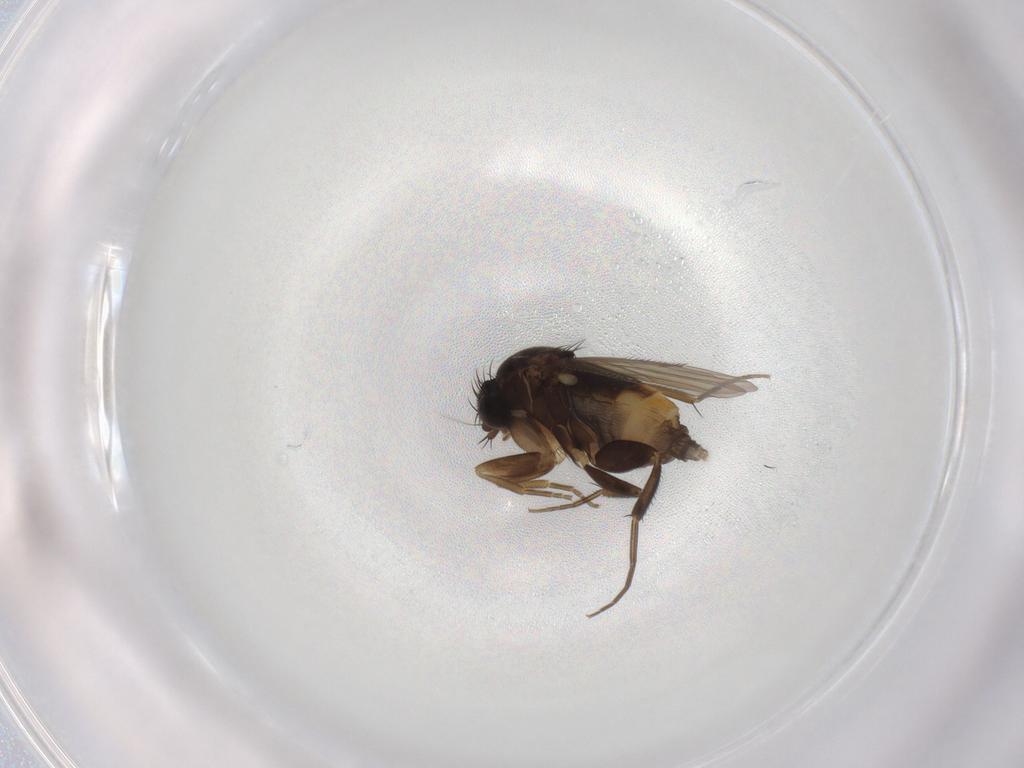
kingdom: Animalia
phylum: Arthropoda
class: Insecta
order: Diptera
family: Phoridae
